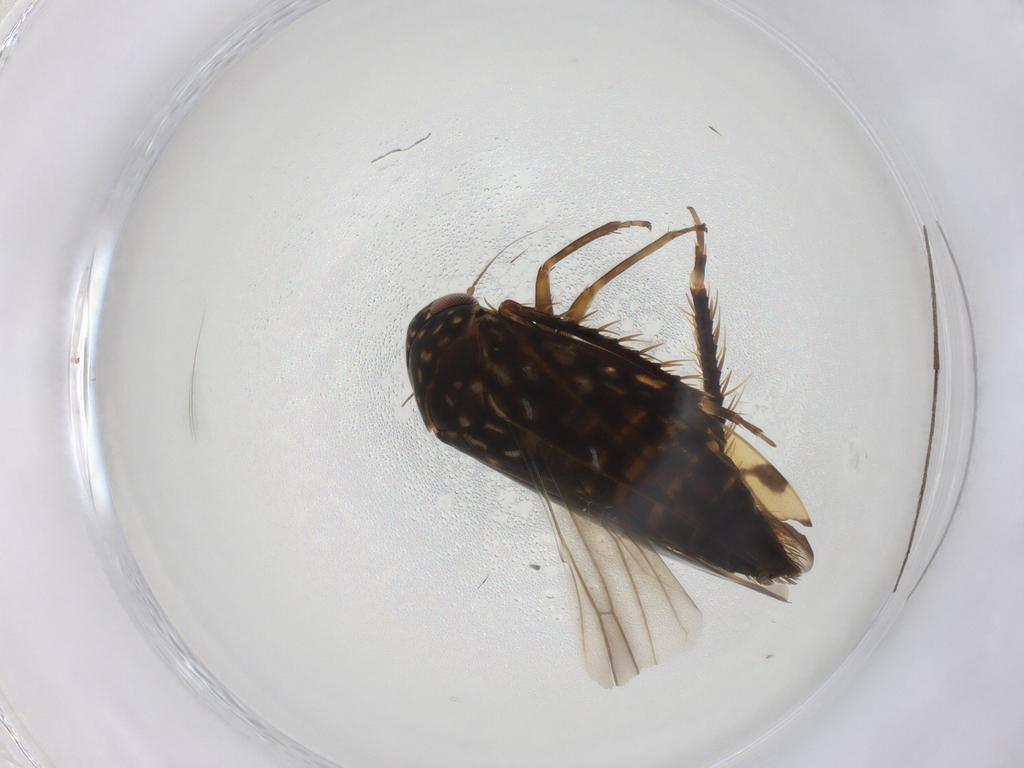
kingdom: Animalia
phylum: Arthropoda
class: Insecta
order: Hemiptera
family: Cicadellidae
